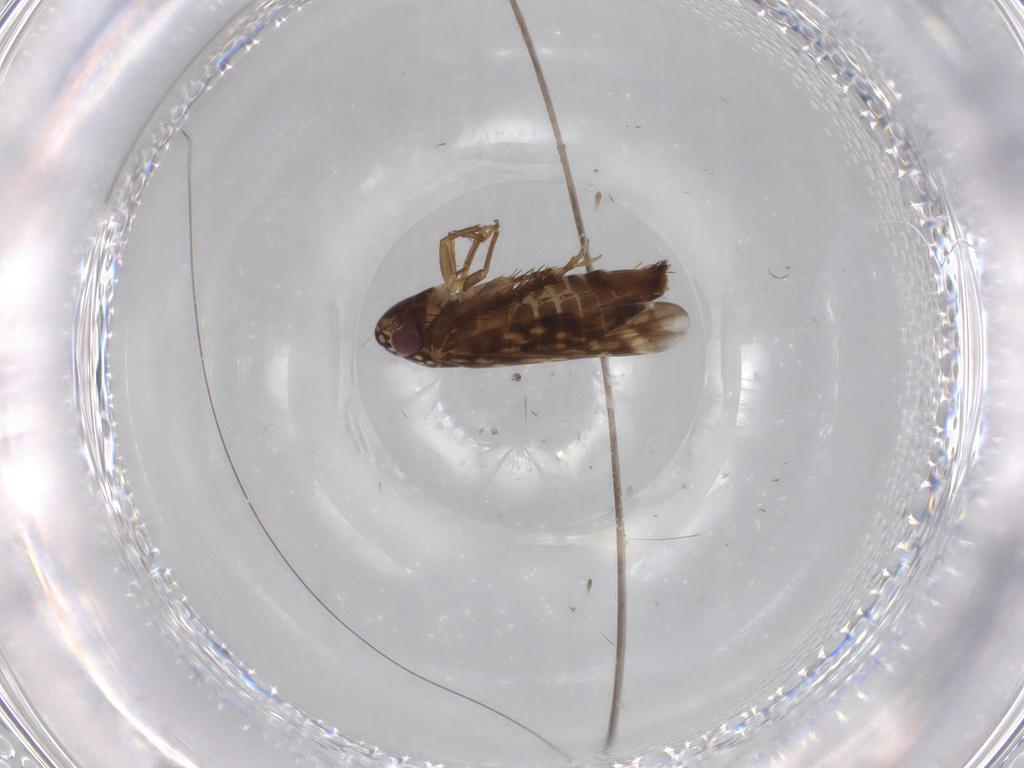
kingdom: Animalia
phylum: Arthropoda
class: Insecta
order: Hemiptera
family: Cicadellidae
